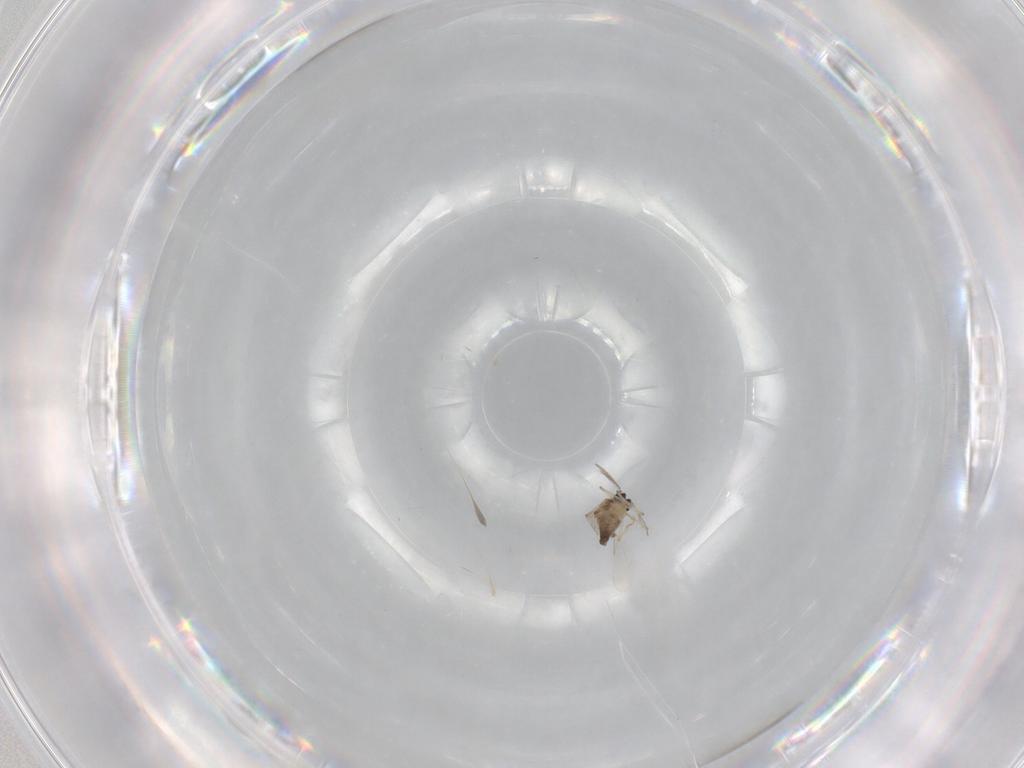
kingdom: Animalia
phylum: Arthropoda
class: Insecta
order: Diptera
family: Ceratopogonidae
